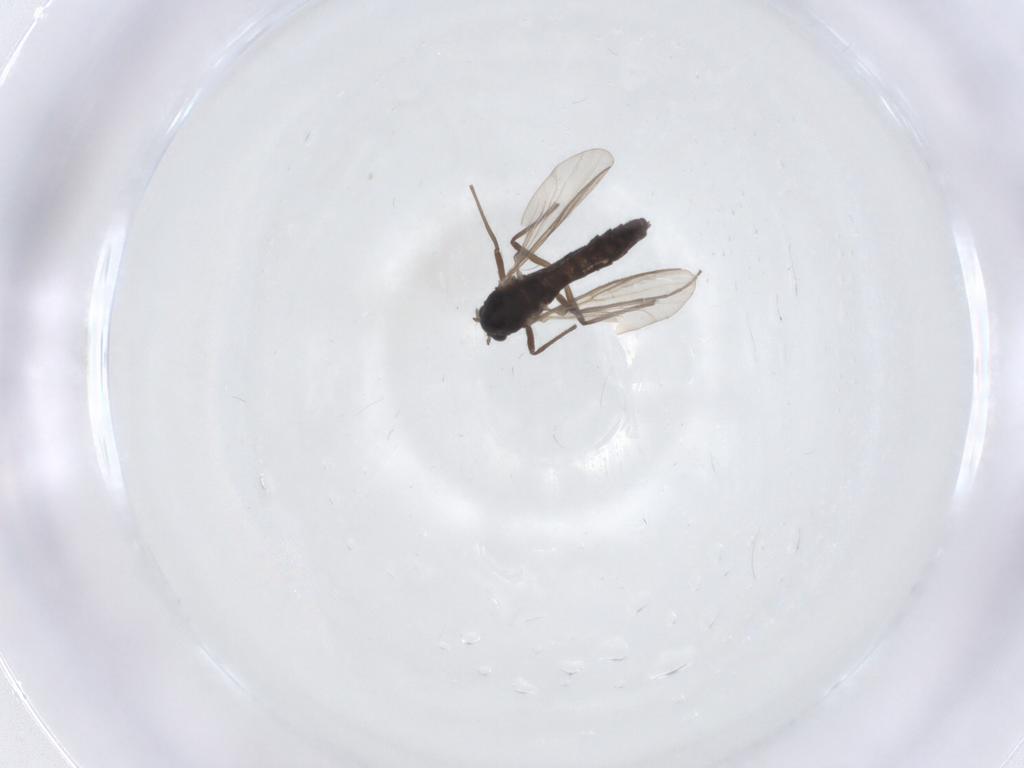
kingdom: Animalia
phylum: Arthropoda
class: Insecta
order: Diptera
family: Chironomidae
